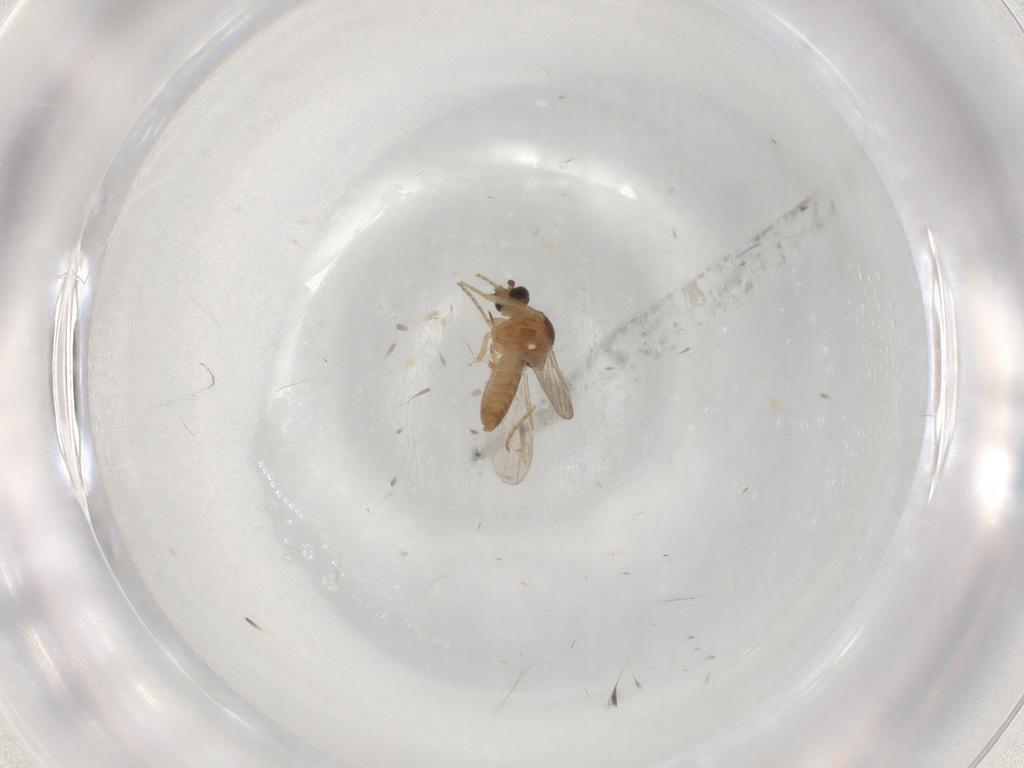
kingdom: Animalia
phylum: Arthropoda
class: Insecta
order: Diptera
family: Ceratopogonidae
